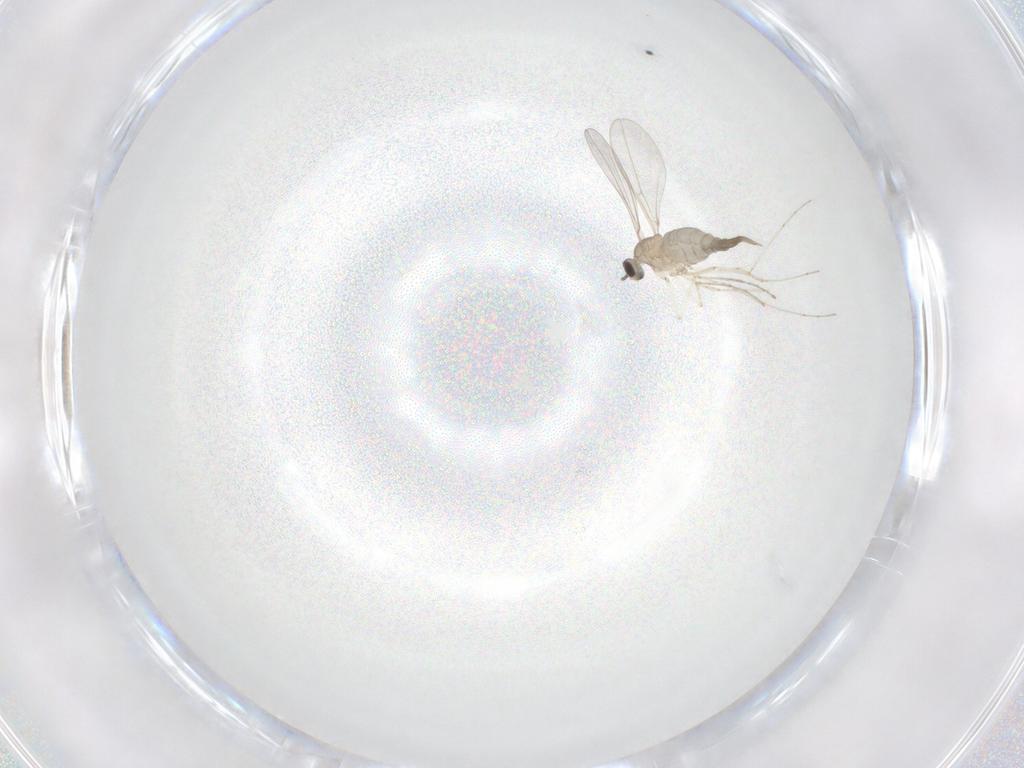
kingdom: Animalia
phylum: Arthropoda
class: Insecta
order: Diptera
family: Cecidomyiidae
